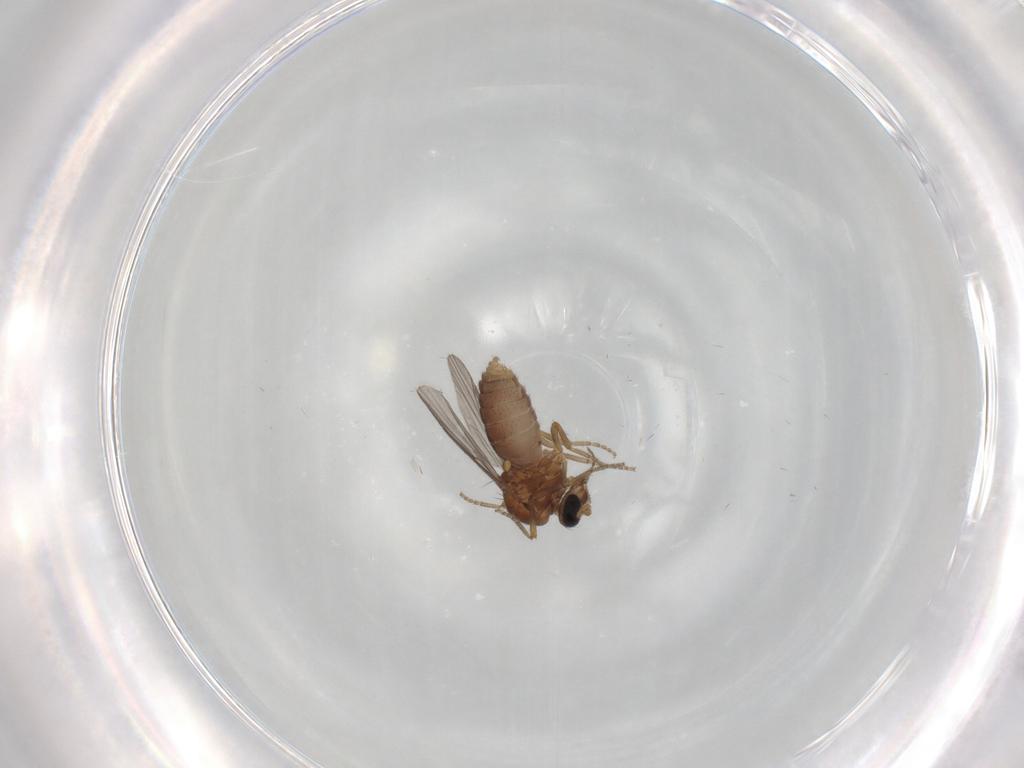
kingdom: Animalia
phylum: Arthropoda
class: Insecta
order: Diptera
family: Ceratopogonidae
